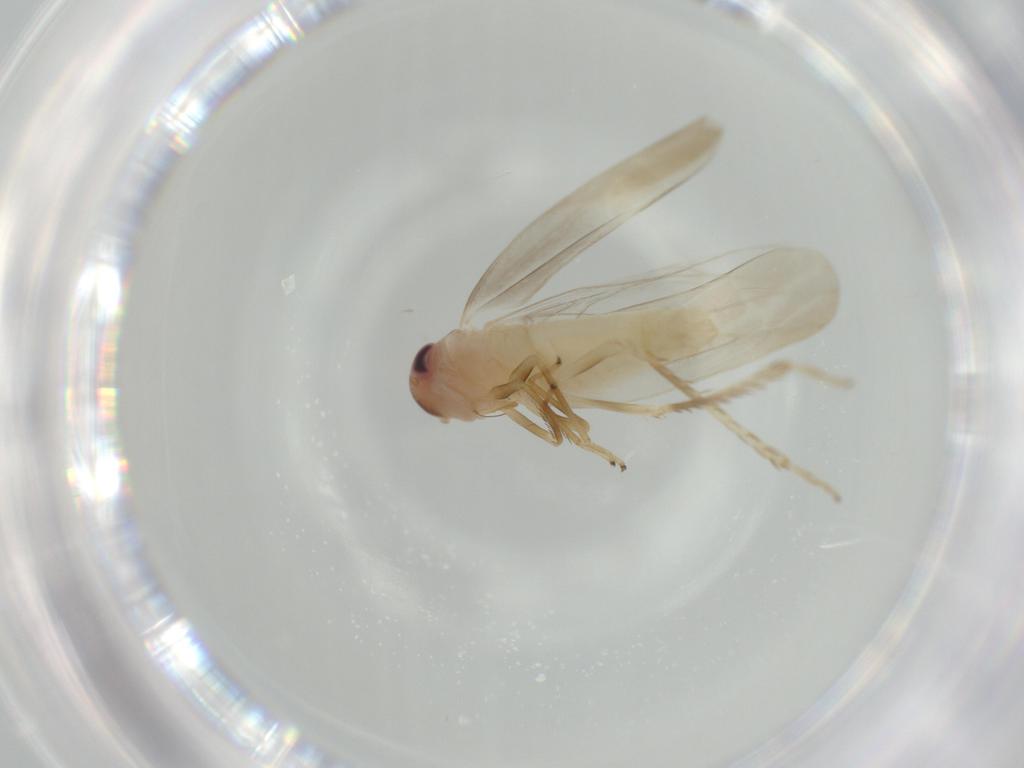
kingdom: Animalia
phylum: Arthropoda
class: Insecta
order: Hemiptera
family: Cicadellidae
